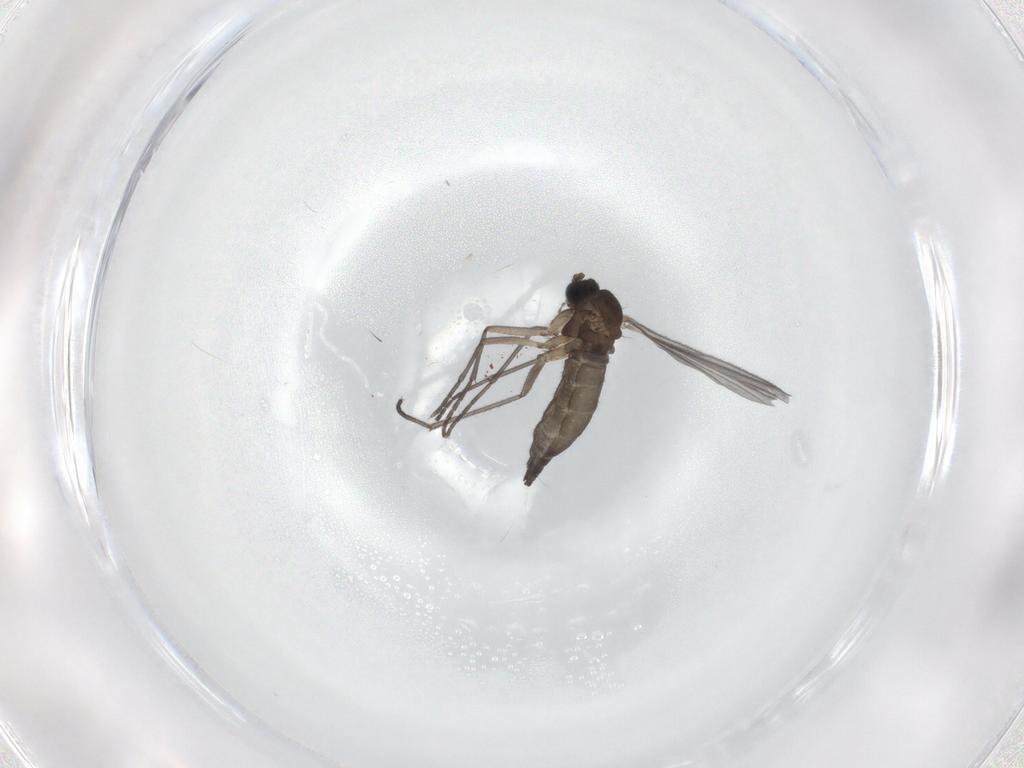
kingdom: Animalia
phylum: Arthropoda
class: Insecta
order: Diptera
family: Sciaridae
